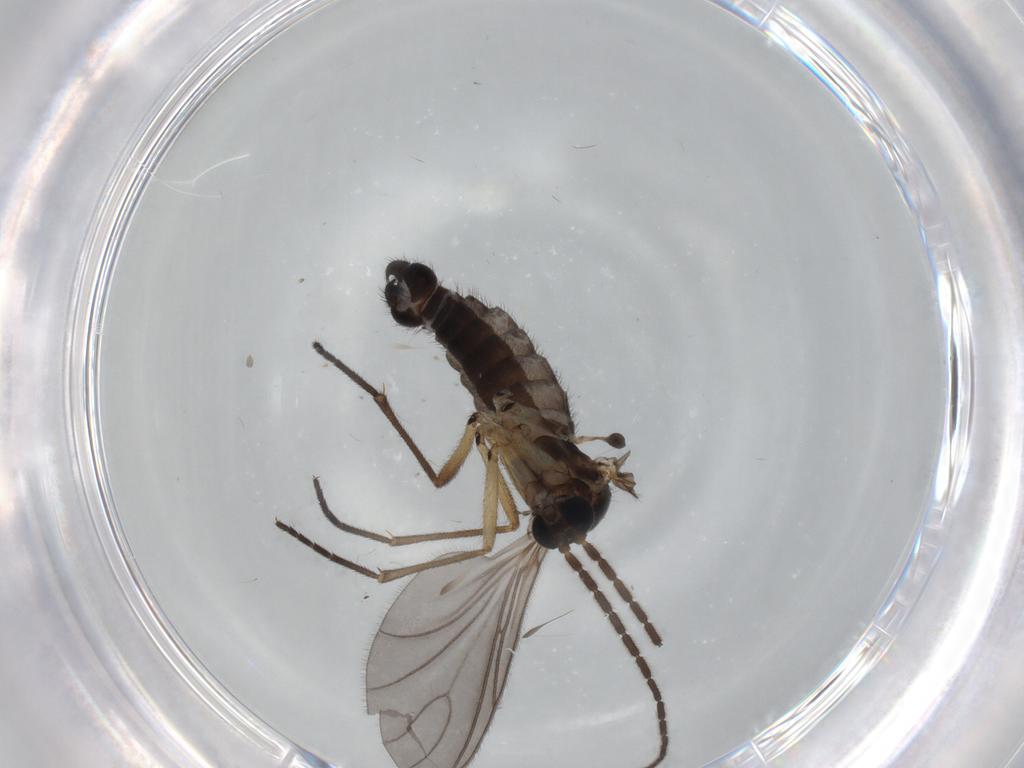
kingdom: Animalia
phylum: Arthropoda
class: Insecta
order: Diptera
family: Sciaridae
